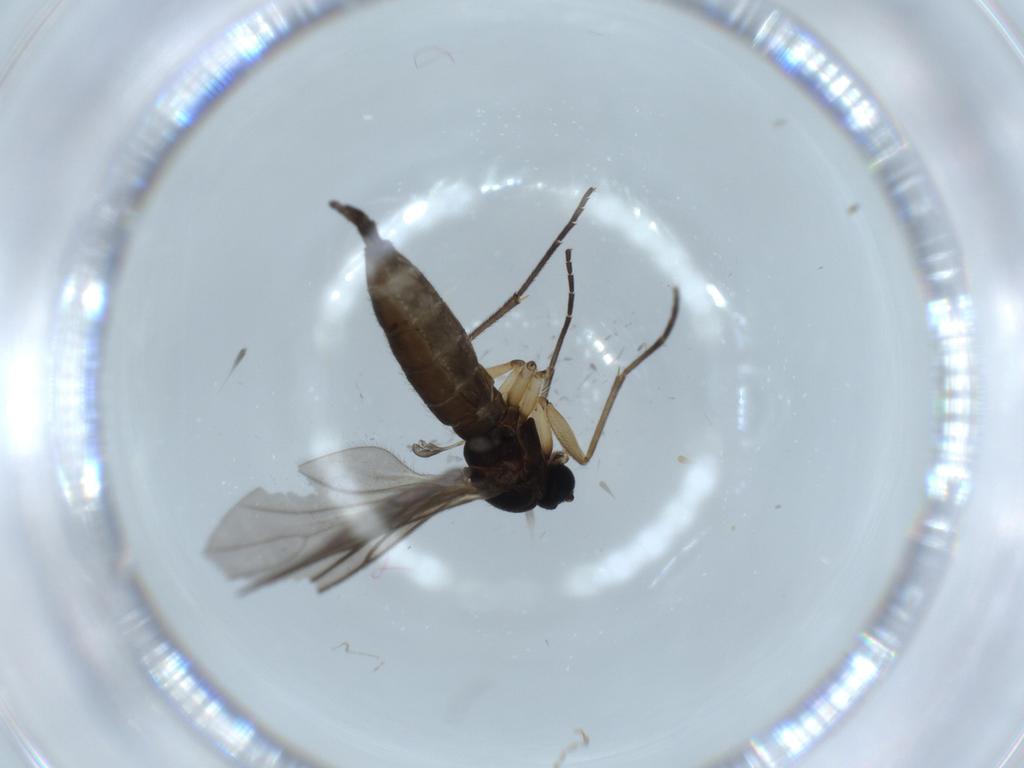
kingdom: Animalia
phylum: Arthropoda
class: Insecta
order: Diptera
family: Sciaridae
